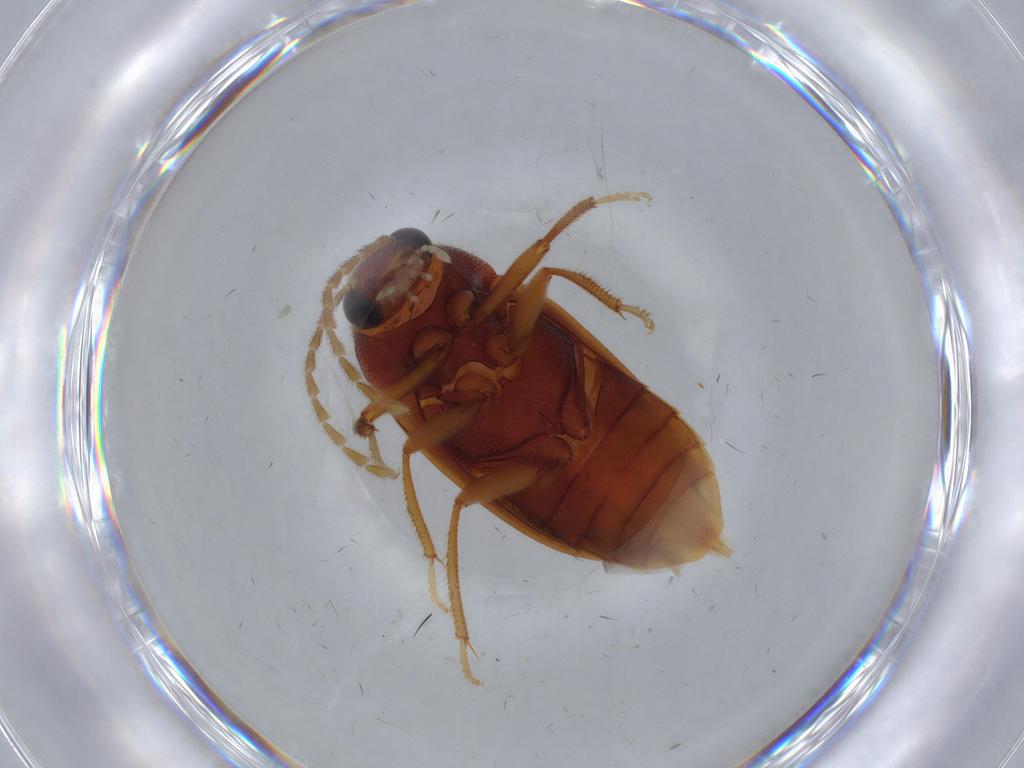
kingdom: Animalia
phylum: Arthropoda
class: Insecta
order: Coleoptera
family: Ptilodactylidae
